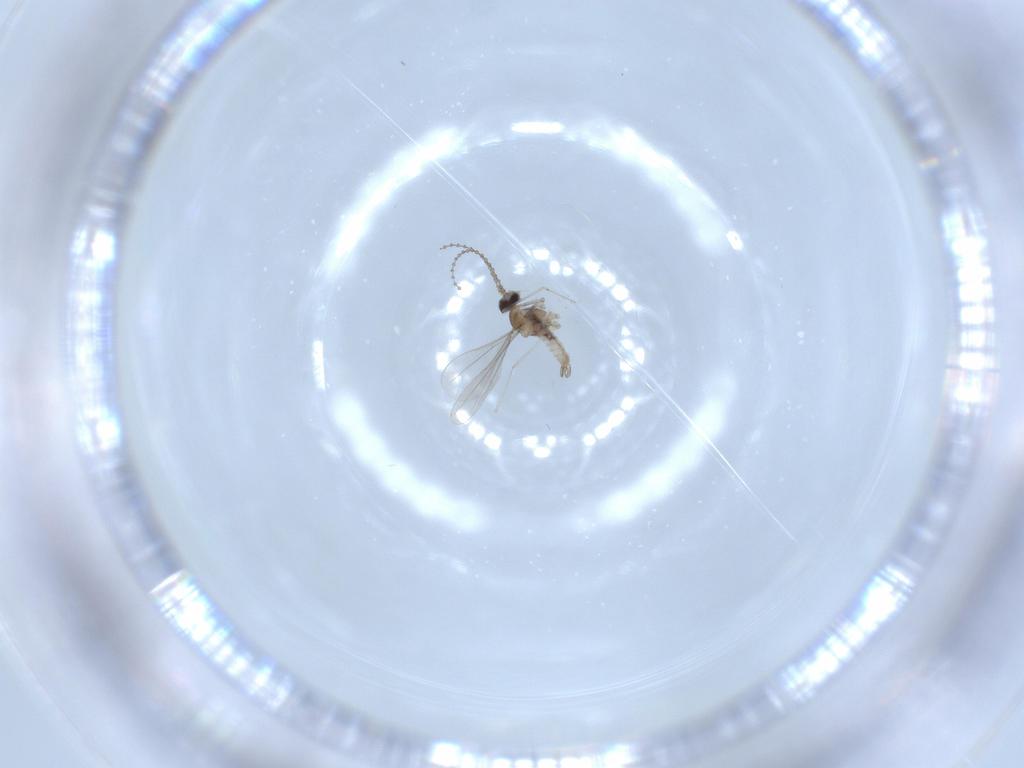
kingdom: Animalia
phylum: Arthropoda
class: Insecta
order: Diptera
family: Cecidomyiidae
